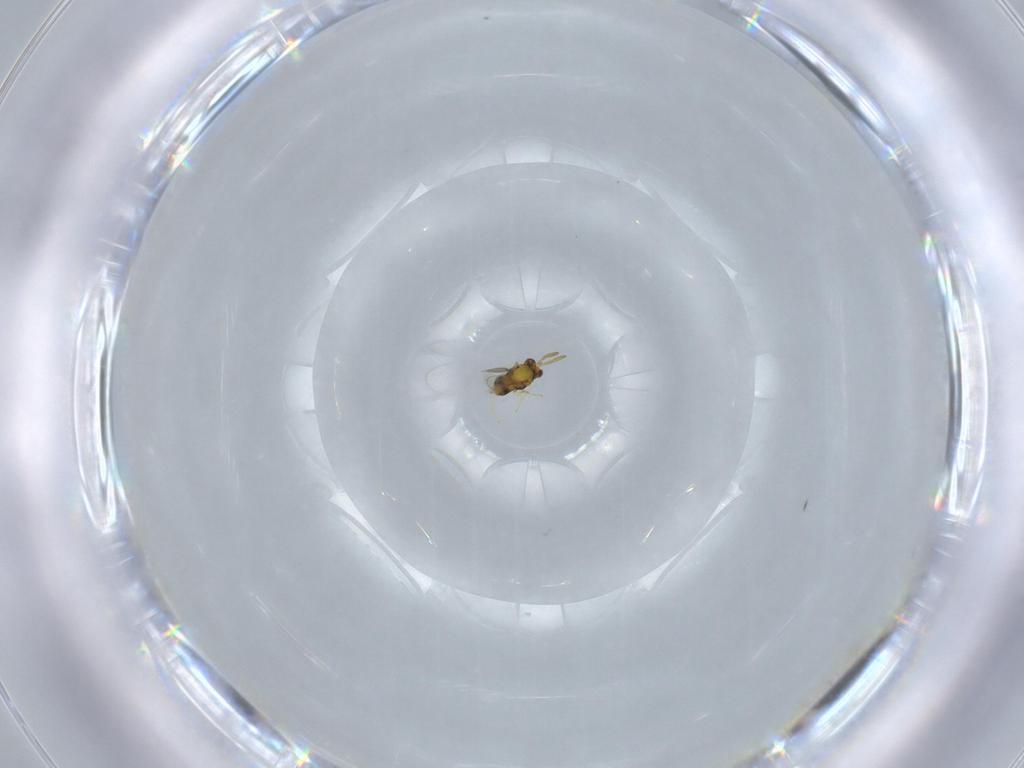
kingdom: Animalia
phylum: Arthropoda
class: Insecta
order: Hymenoptera
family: Aphelinidae
